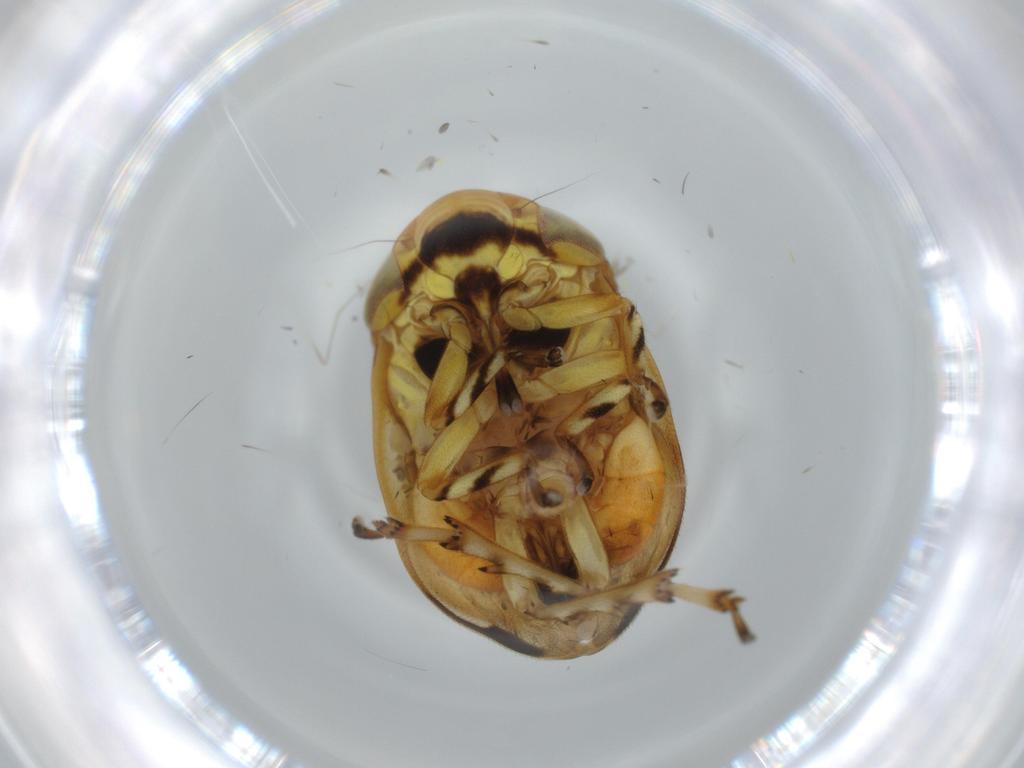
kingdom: Animalia
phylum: Arthropoda
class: Insecta
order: Hemiptera
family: Clastopteridae
